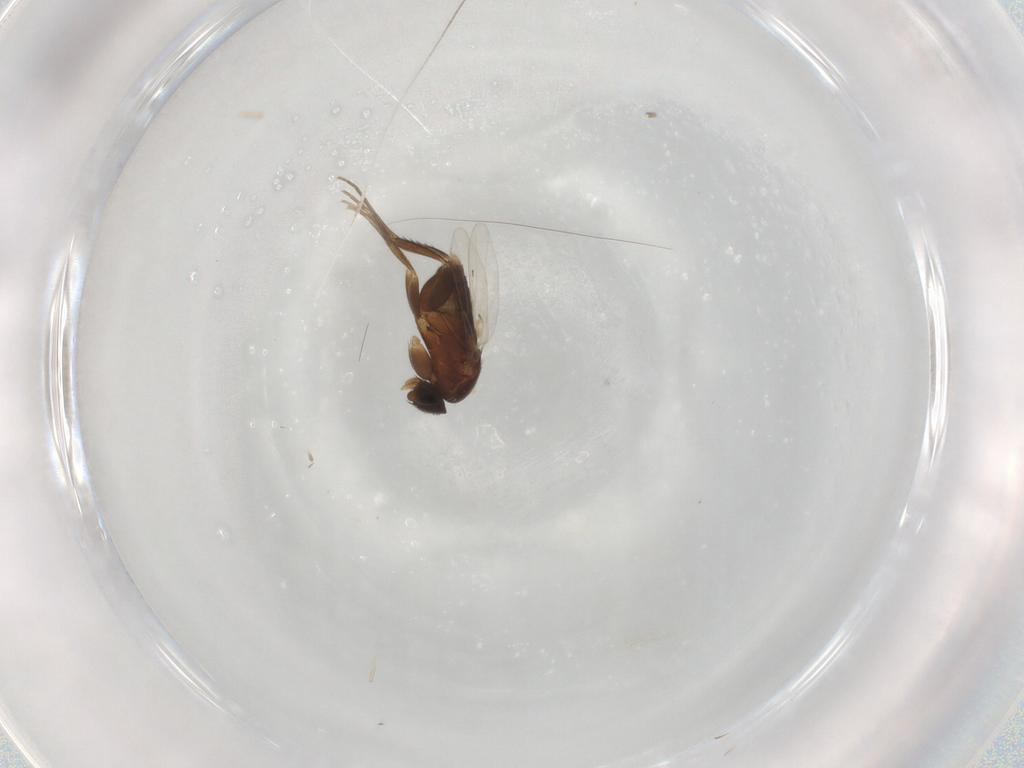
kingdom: Animalia
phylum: Arthropoda
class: Insecta
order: Diptera
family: Phoridae
